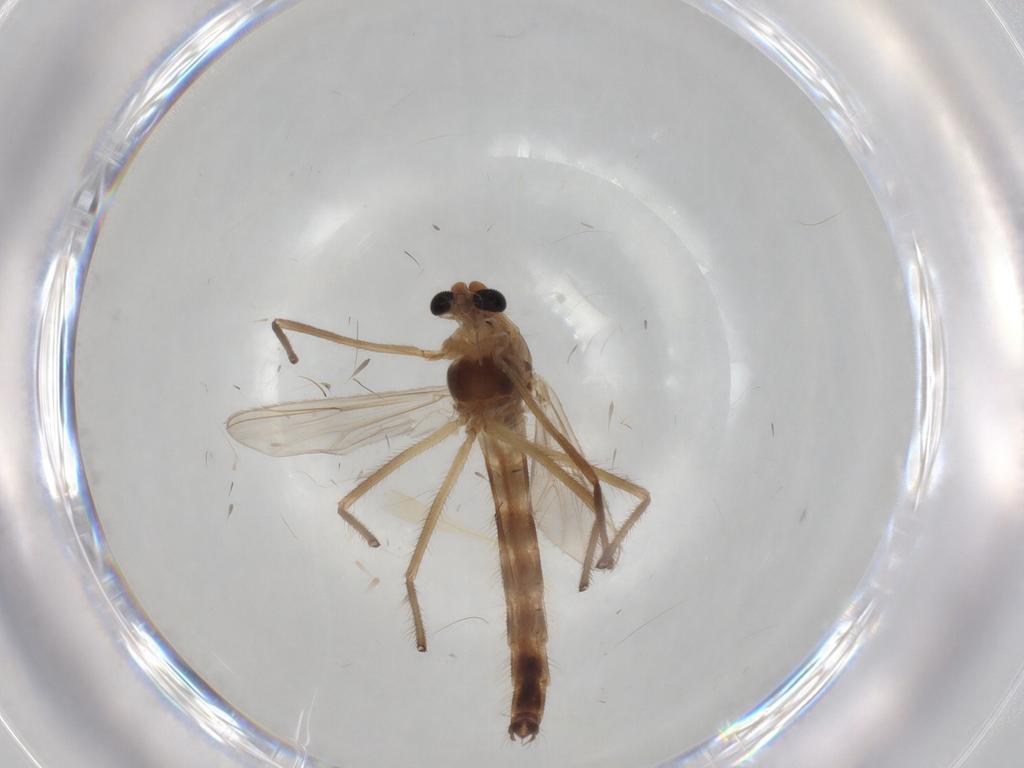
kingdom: Animalia
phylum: Arthropoda
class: Insecta
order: Diptera
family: Chironomidae
